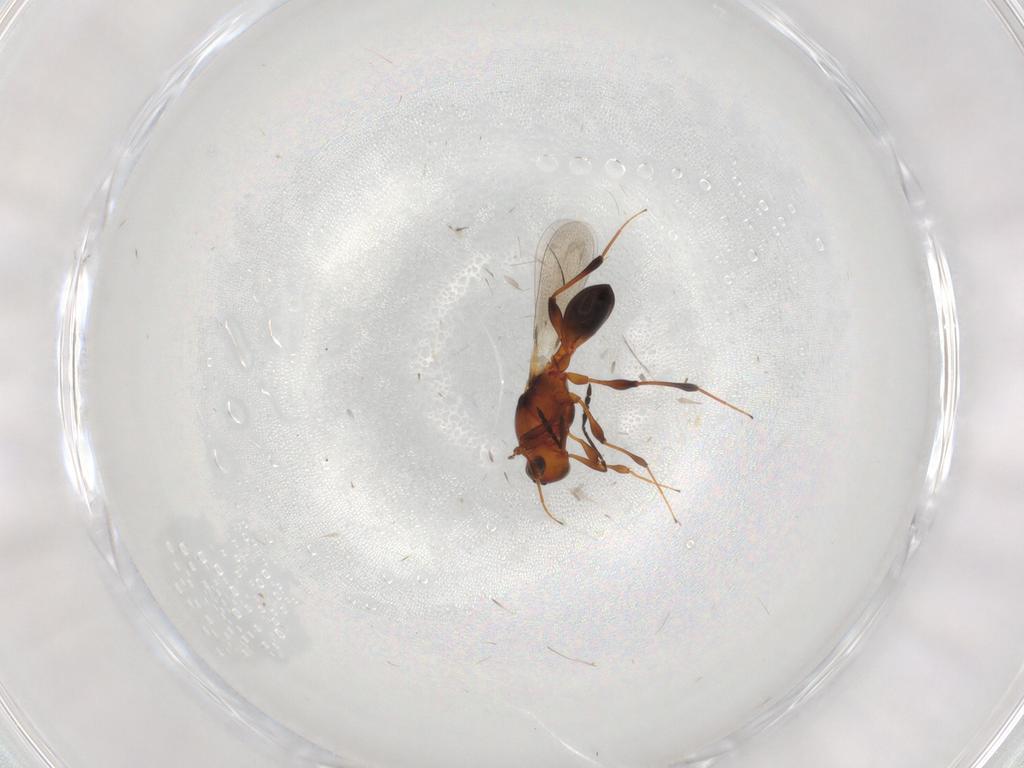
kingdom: Animalia
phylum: Arthropoda
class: Insecta
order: Hymenoptera
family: Platygastridae
